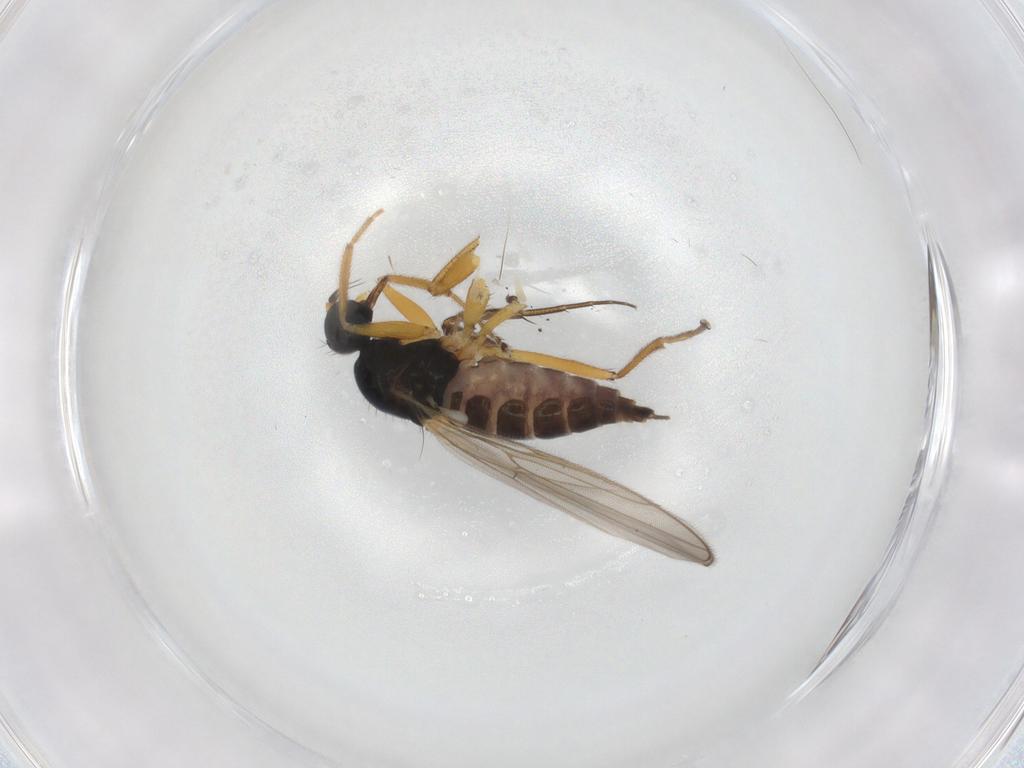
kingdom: Animalia
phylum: Arthropoda
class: Insecta
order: Diptera
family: Hybotidae
